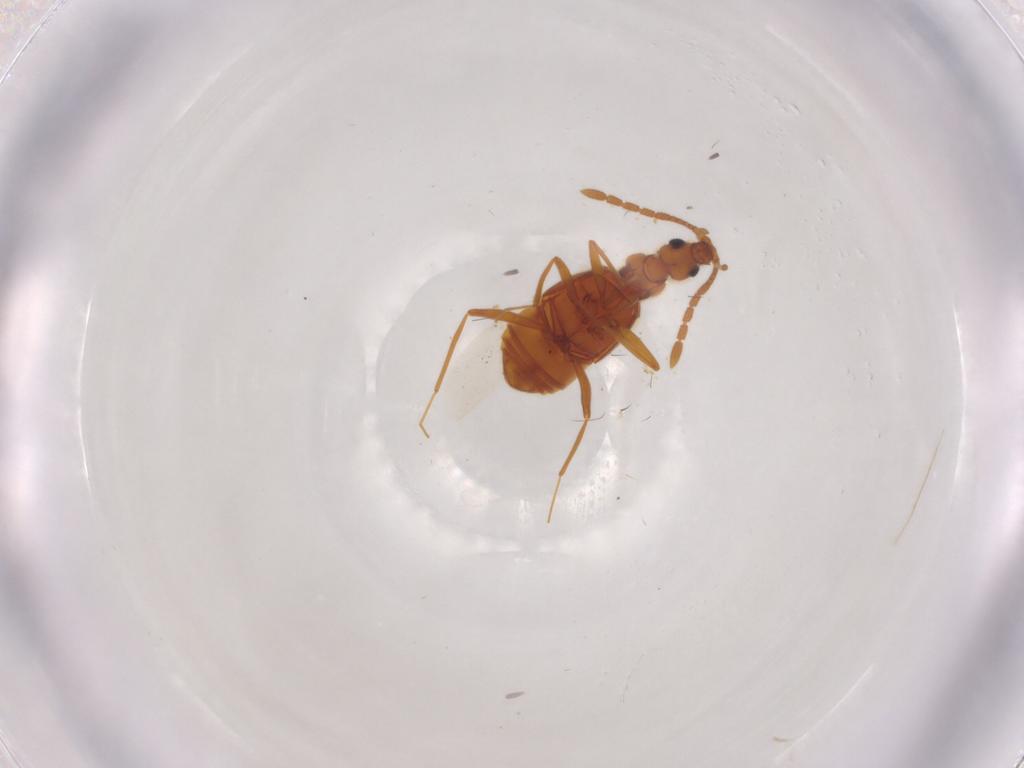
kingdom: Animalia
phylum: Arthropoda
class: Insecta
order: Coleoptera
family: Scarabaeidae
